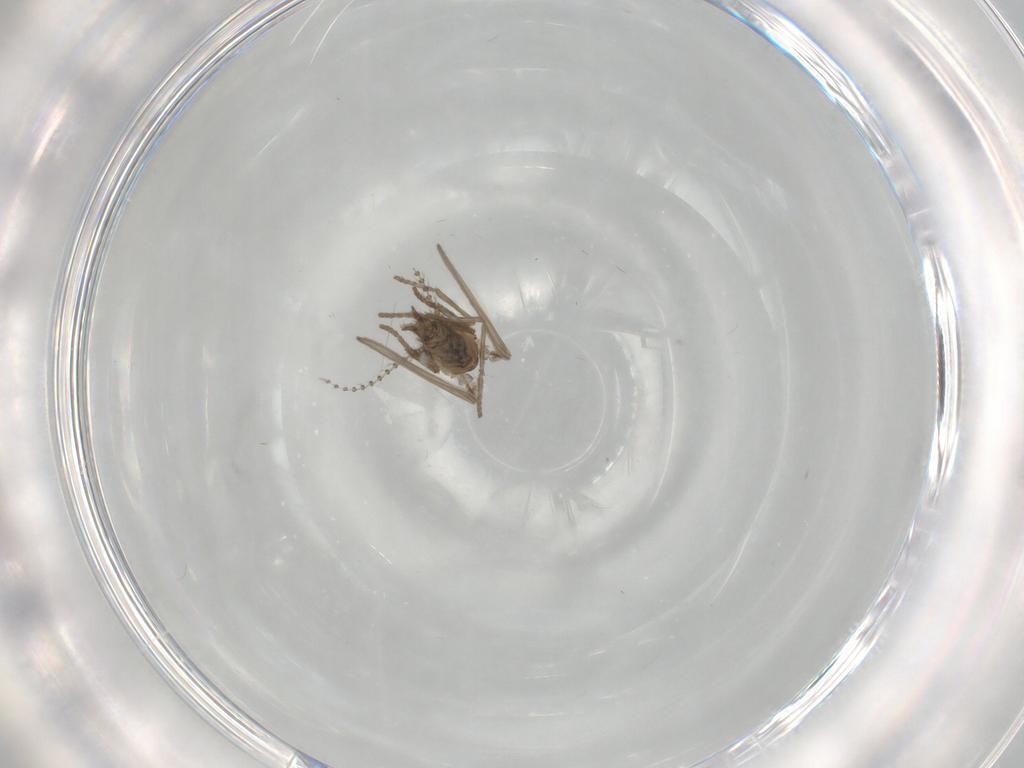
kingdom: Animalia
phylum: Arthropoda
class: Insecta
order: Diptera
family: Psychodidae
